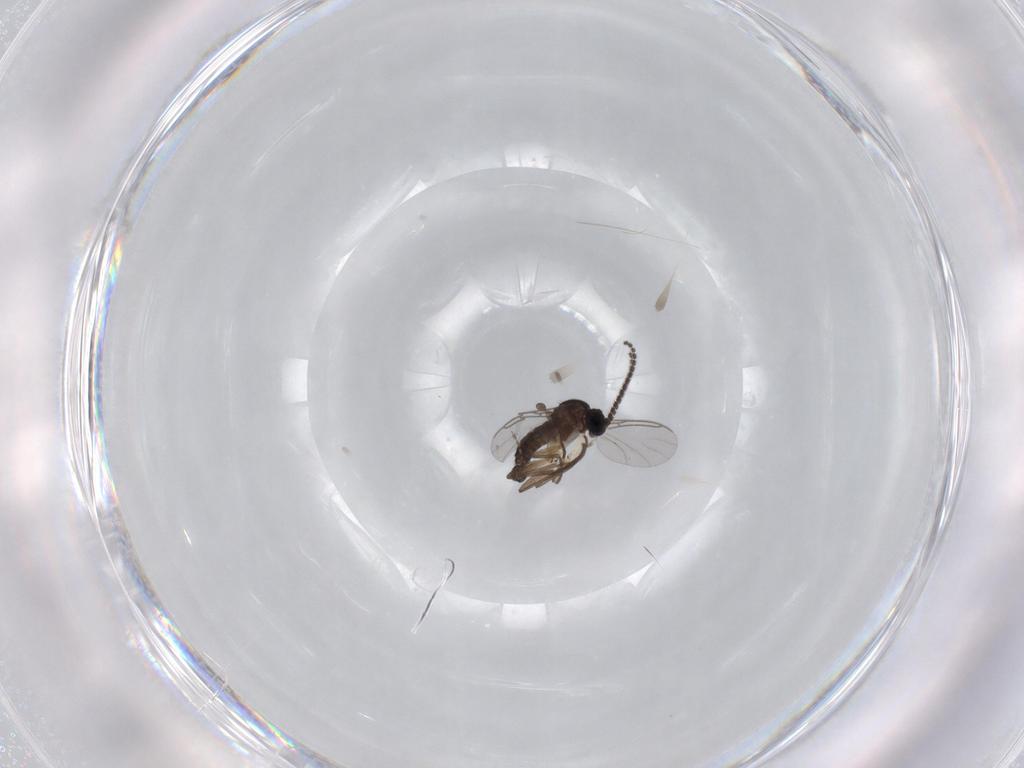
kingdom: Animalia
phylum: Arthropoda
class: Insecta
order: Diptera
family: Sciaridae
